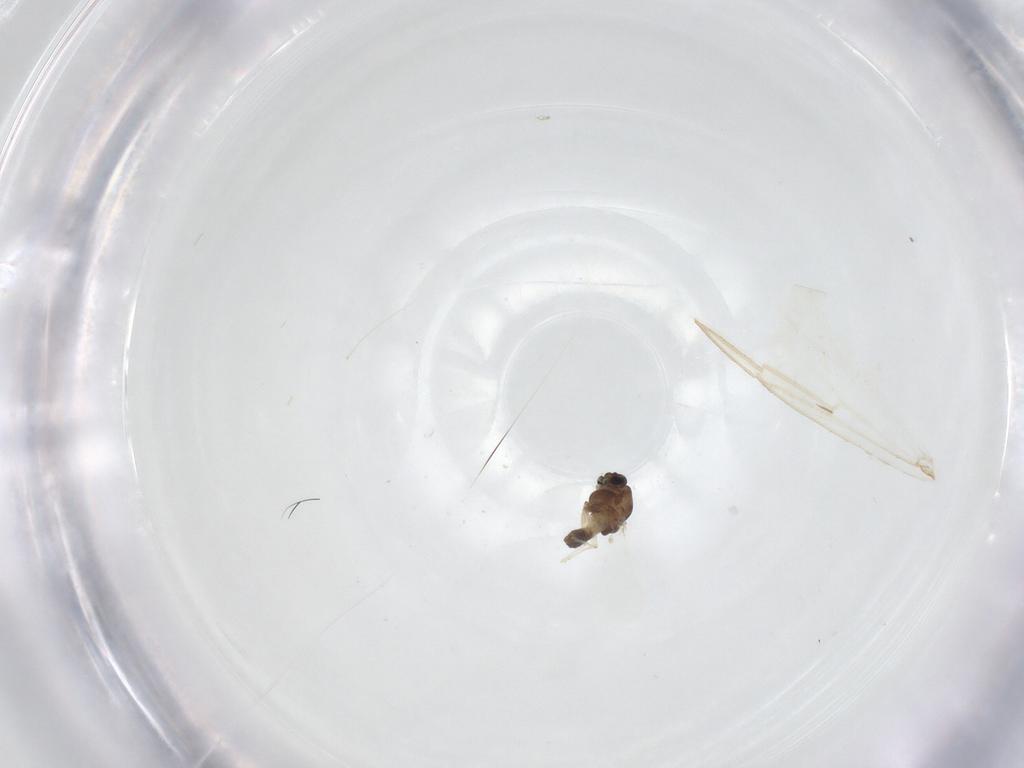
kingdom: Animalia
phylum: Arthropoda
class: Insecta
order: Diptera
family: Chironomidae
